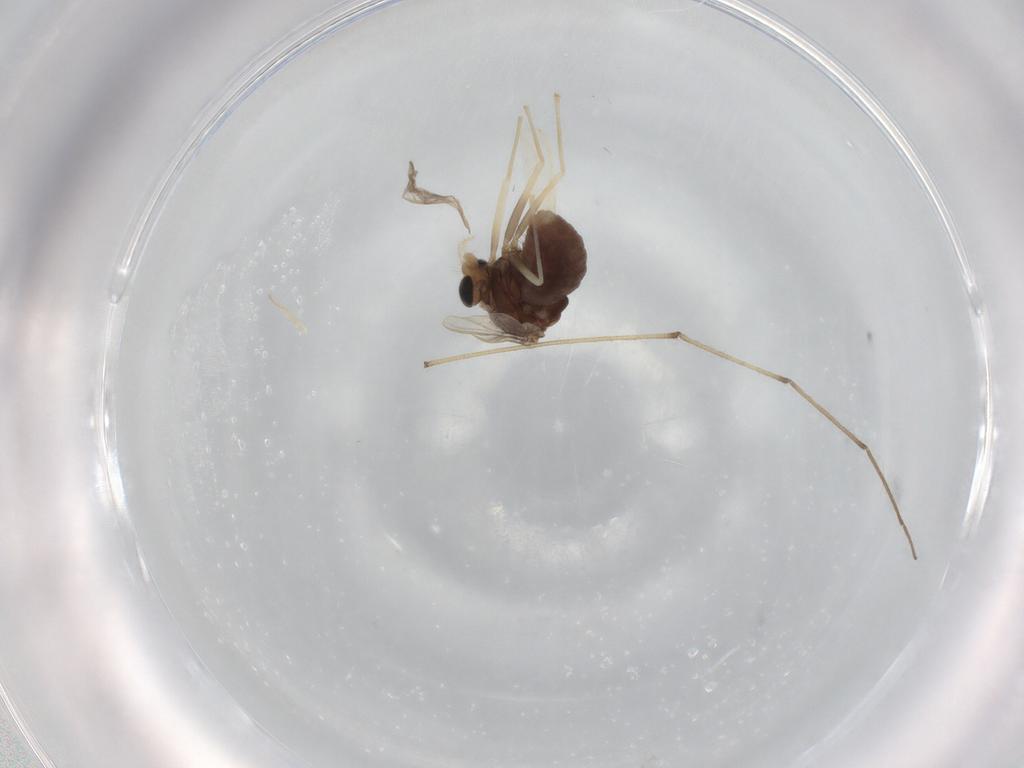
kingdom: Animalia
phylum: Arthropoda
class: Insecta
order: Diptera
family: Chironomidae
